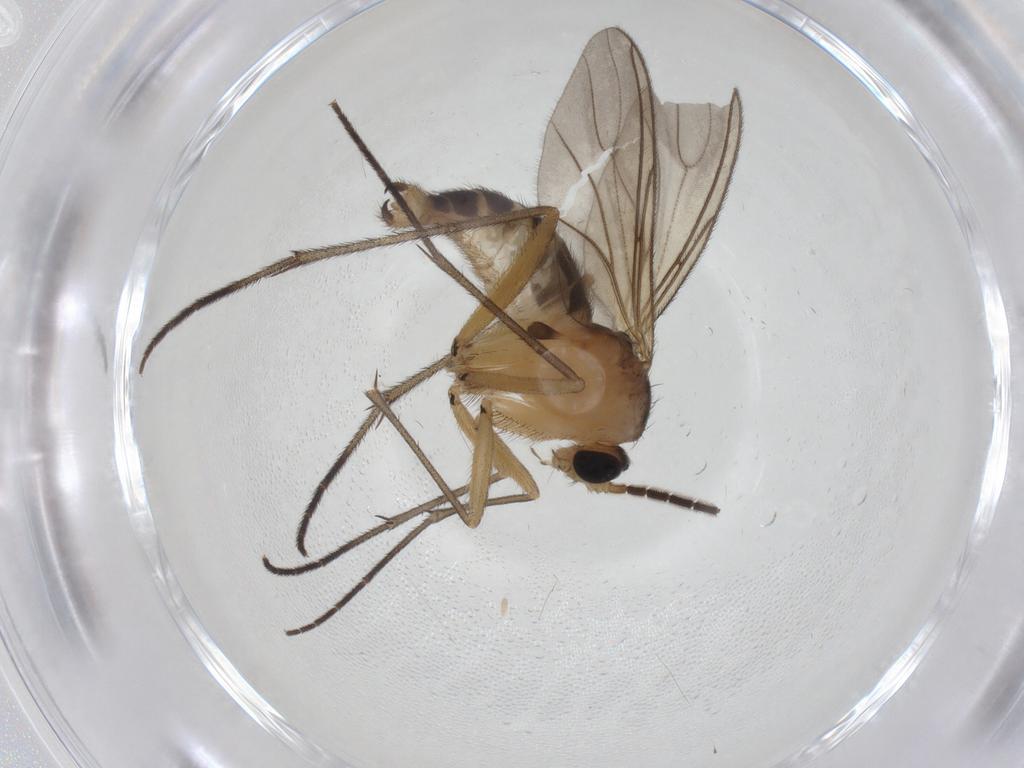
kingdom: Animalia
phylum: Arthropoda
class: Insecta
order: Diptera
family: Sciaridae
